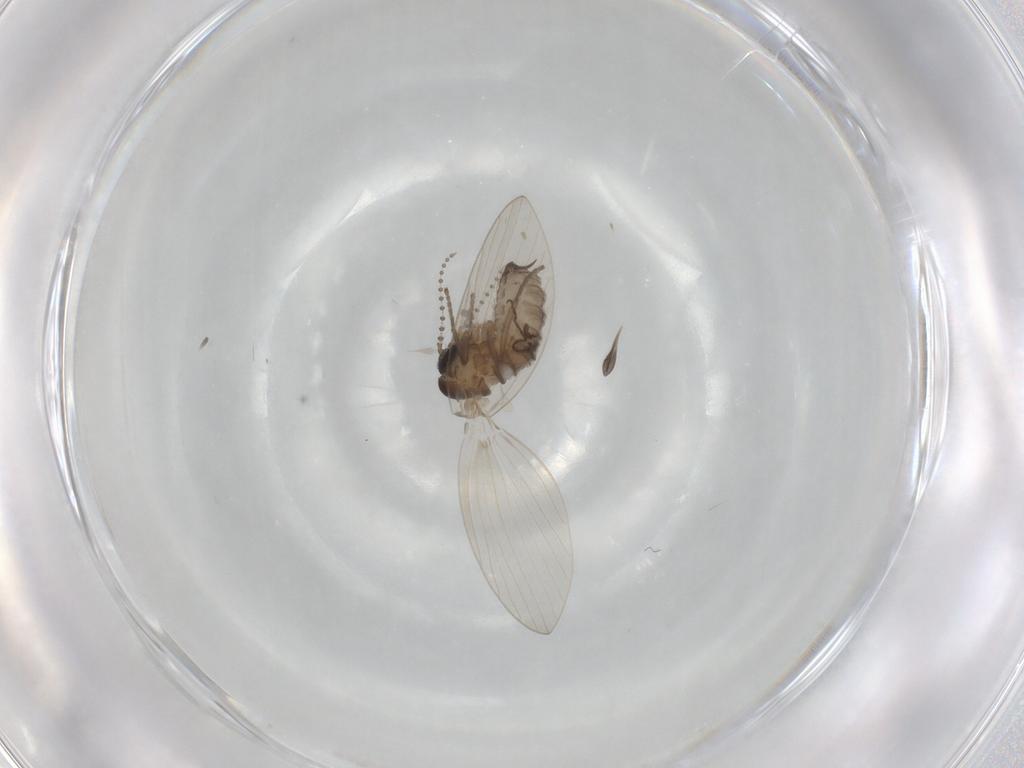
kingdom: Animalia
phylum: Arthropoda
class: Insecta
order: Diptera
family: Psychodidae
